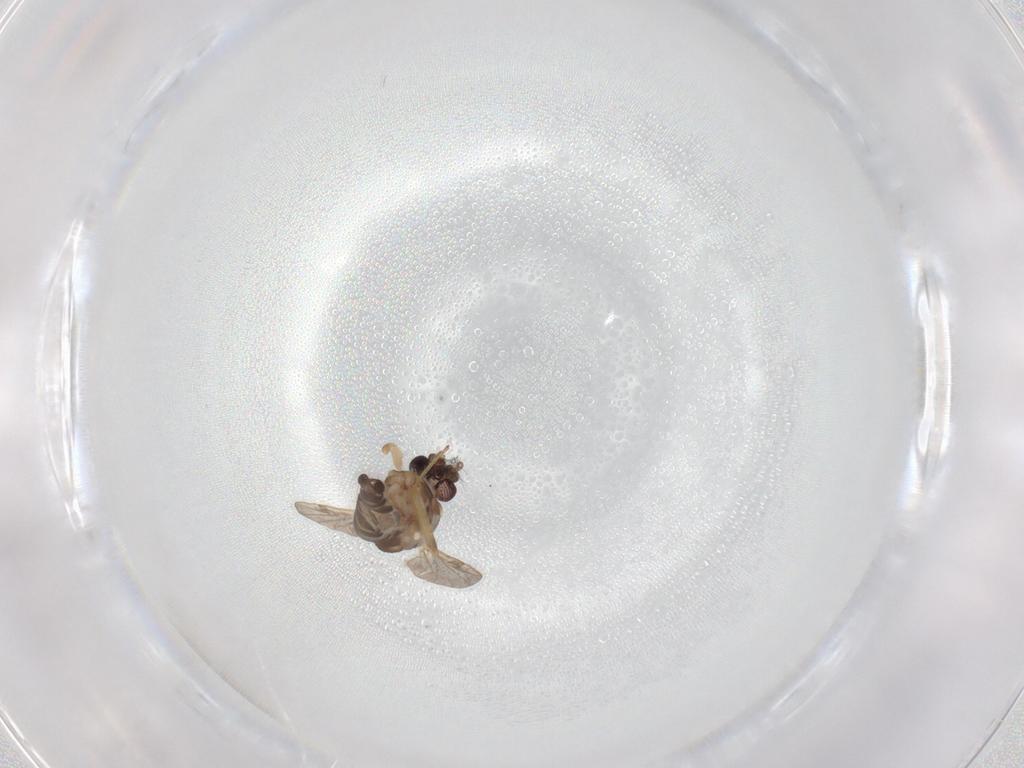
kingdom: Animalia
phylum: Arthropoda
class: Insecta
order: Diptera
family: Ceratopogonidae
